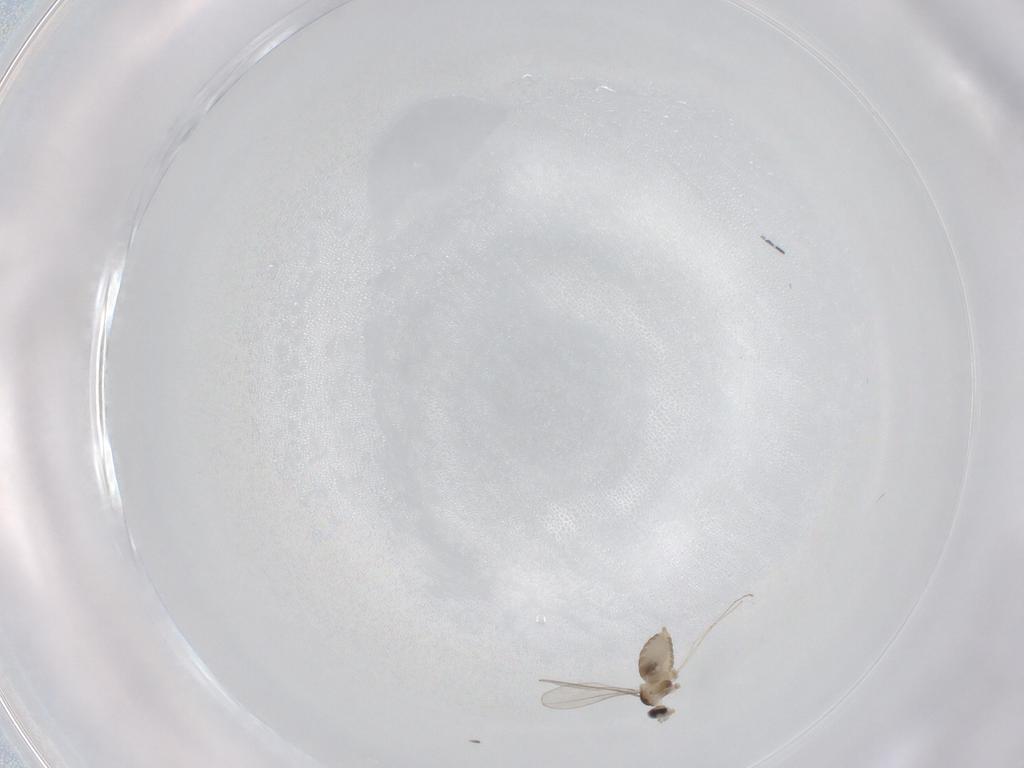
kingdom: Animalia
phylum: Arthropoda
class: Insecta
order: Diptera
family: Cecidomyiidae
